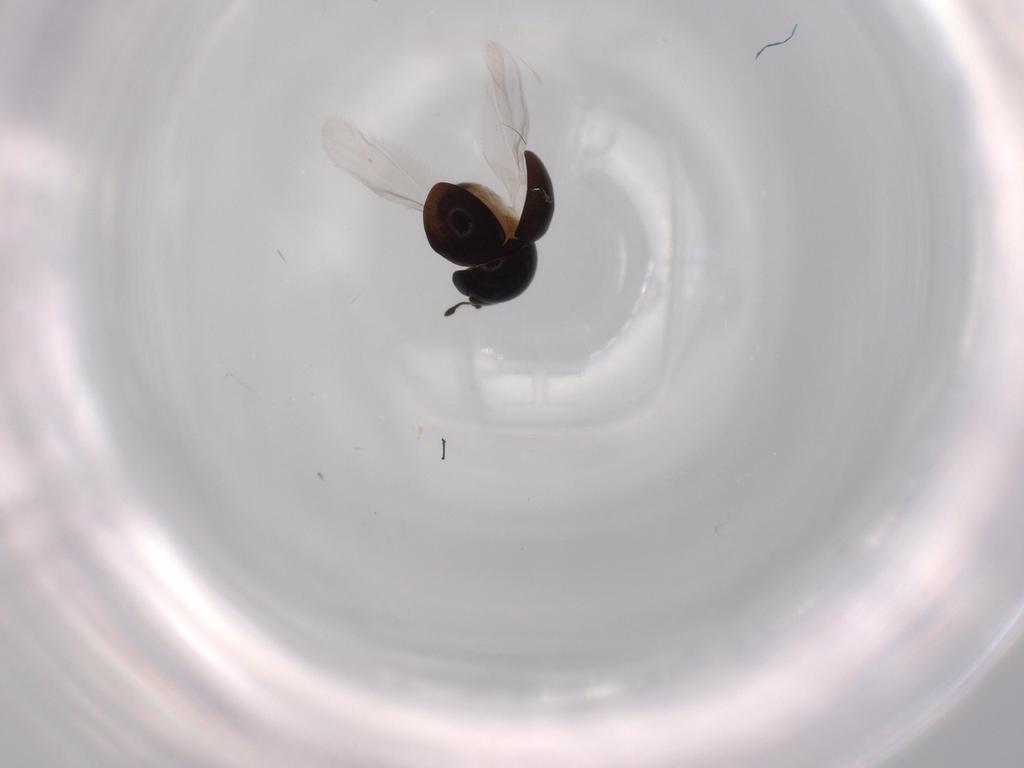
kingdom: Animalia
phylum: Arthropoda
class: Insecta
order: Coleoptera
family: Cybocephalidae
